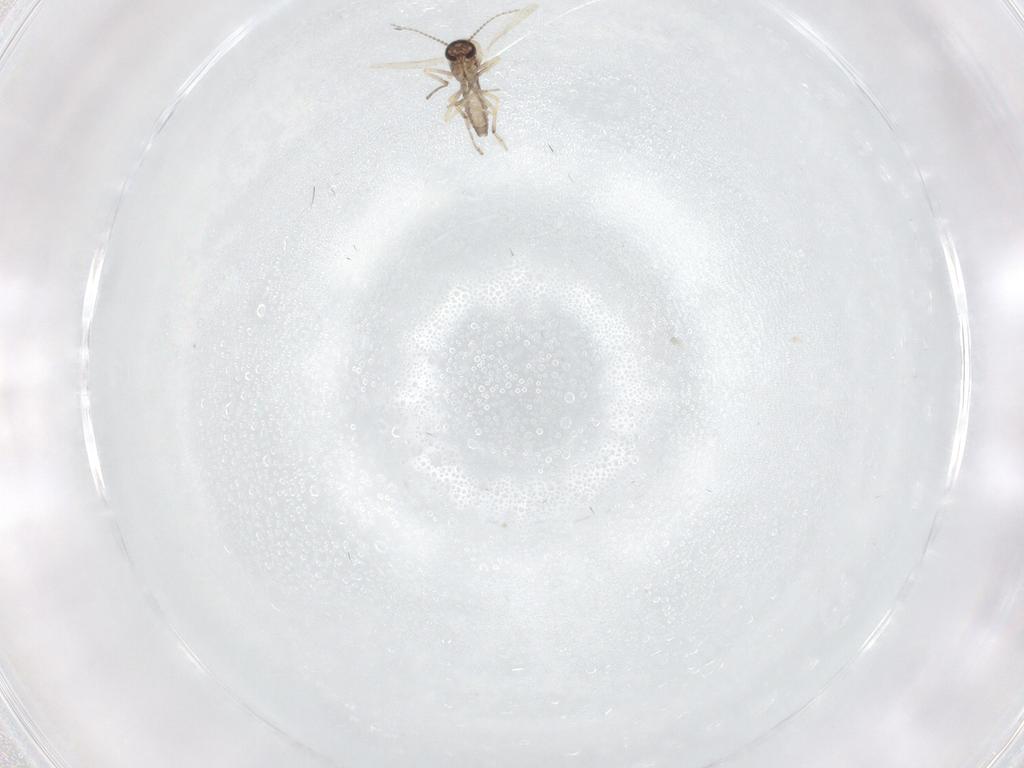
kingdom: Animalia
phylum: Arthropoda
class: Insecta
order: Diptera
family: Ceratopogonidae
